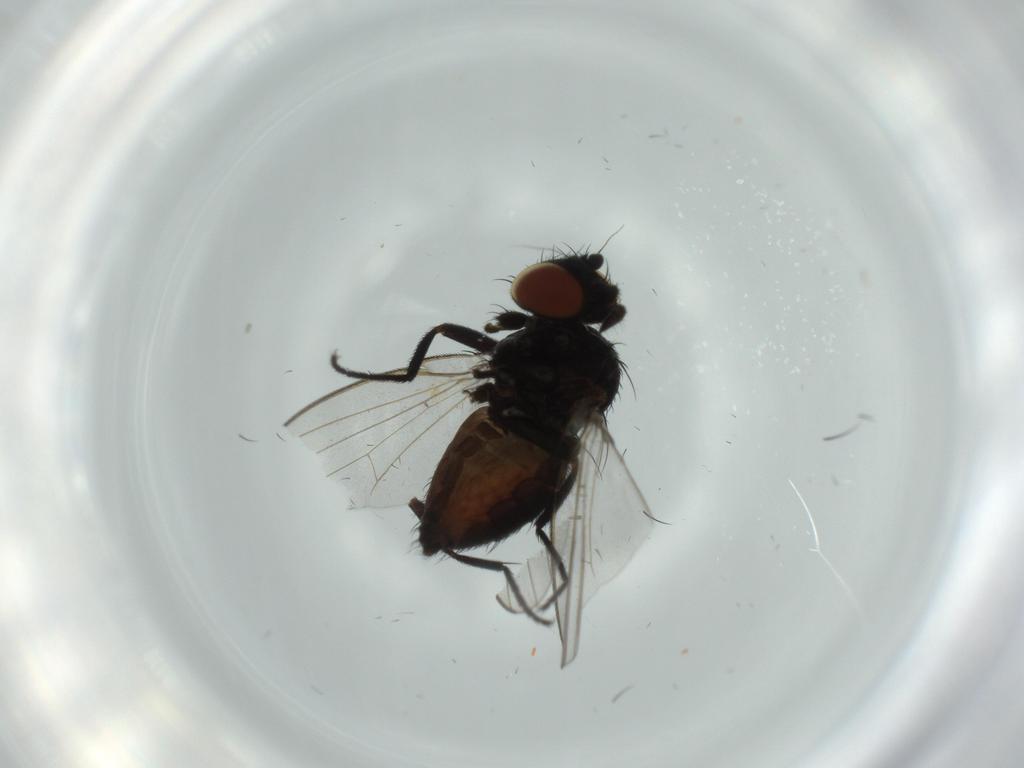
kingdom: Animalia
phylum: Arthropoda
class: Insecta
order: Diptera
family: Milichiidae
